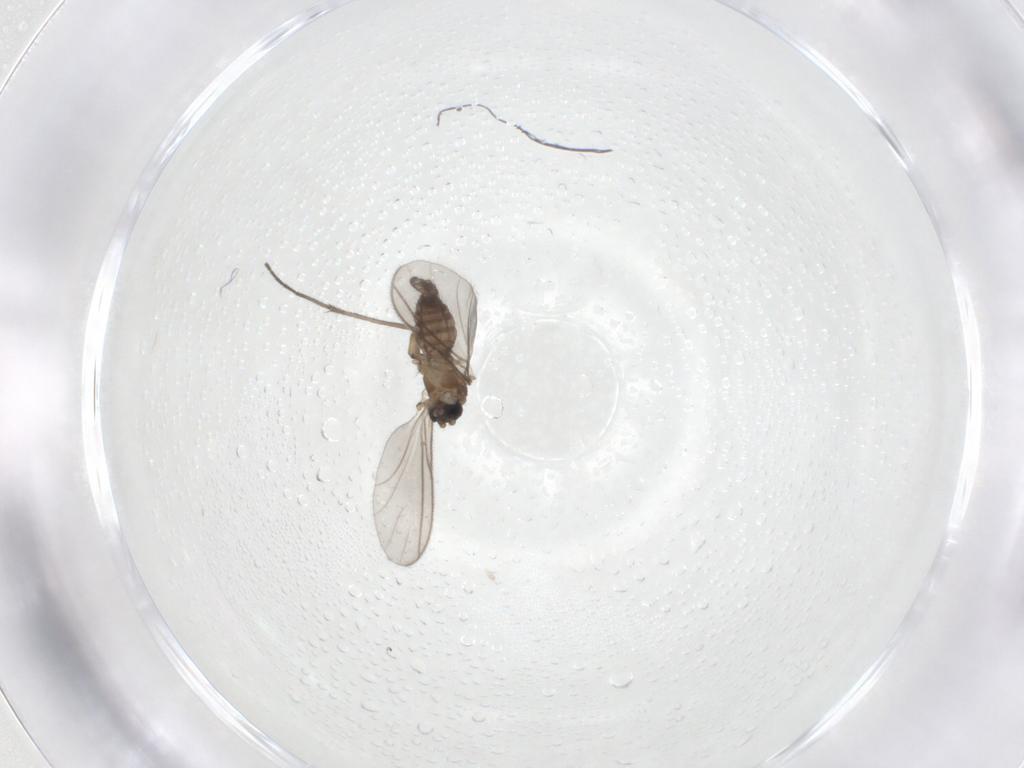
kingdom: Animalia
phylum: Arthropoda
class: Insecta
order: Diptera
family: Sciaridae
